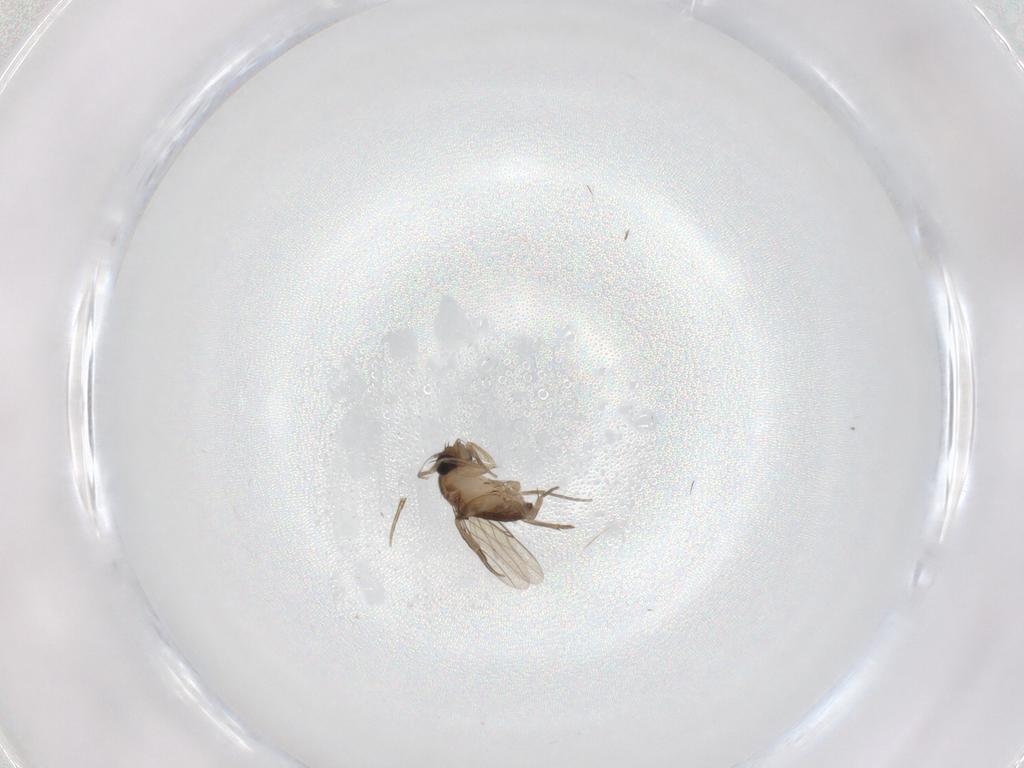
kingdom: Animalia
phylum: Arthropoda
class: Insecta
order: Diptera
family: Phoridae
